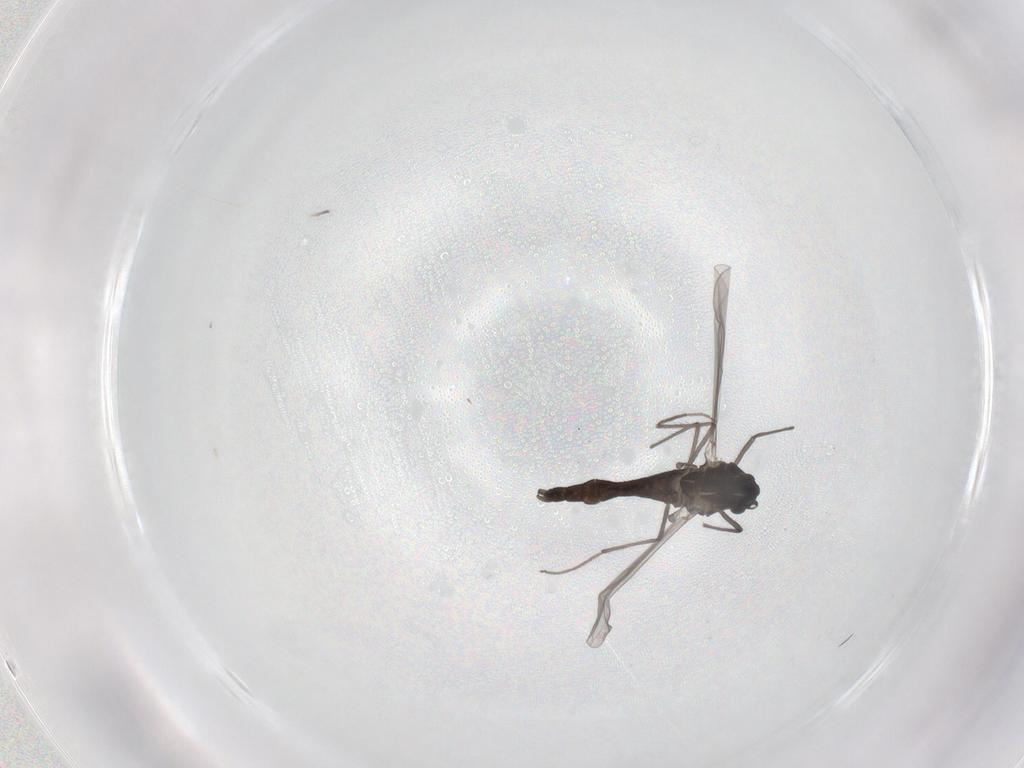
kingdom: Animalia
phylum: Arthropoda
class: Insecta
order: Diptera
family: Chironomidae
